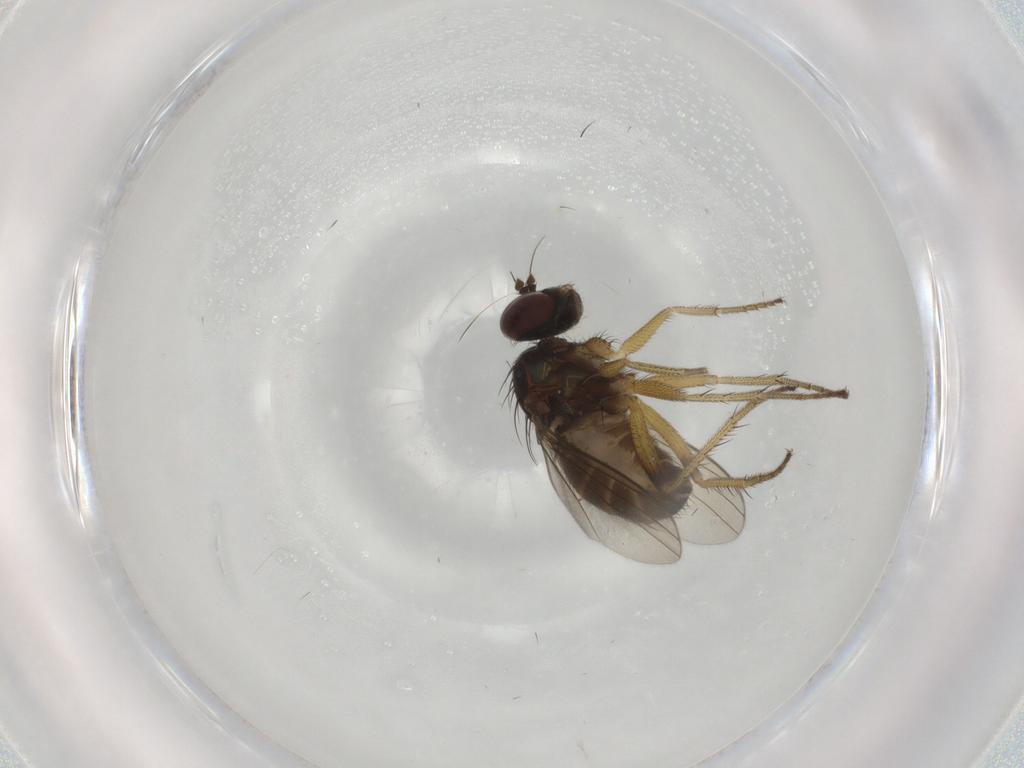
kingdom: Animalia
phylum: Arthropoda
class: Insecta
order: Diptera
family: Dolichopodidae
